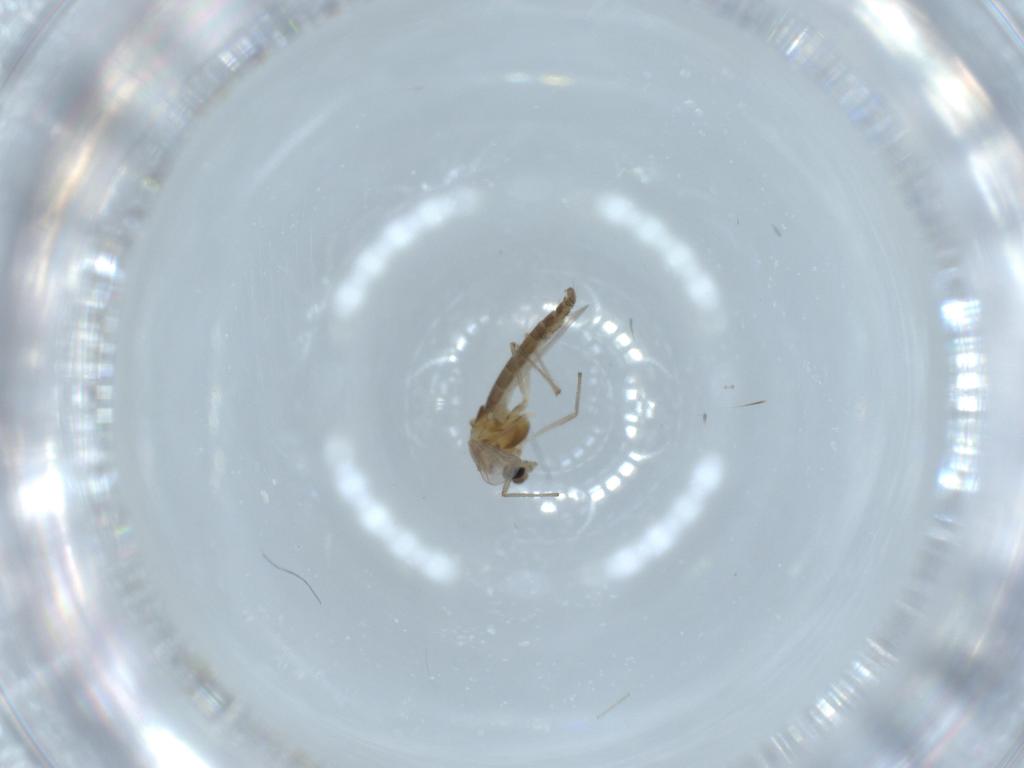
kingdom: Animalia
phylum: Arthropoda
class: Insecta
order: Diptera
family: Chironomidae
